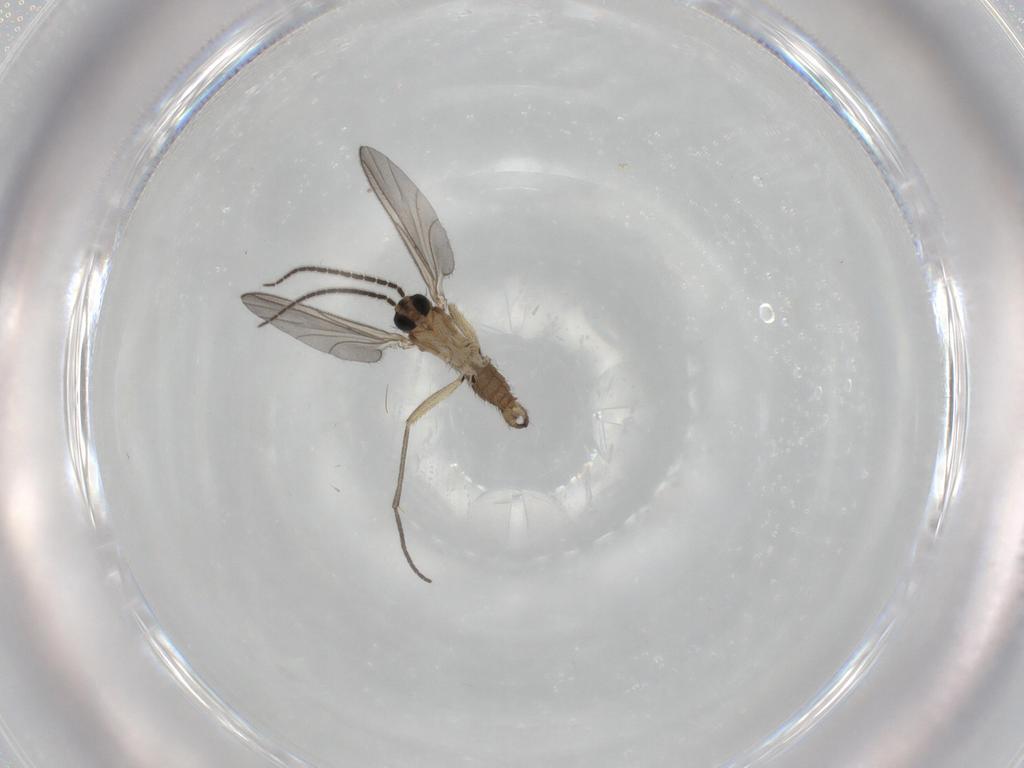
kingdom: Animalia
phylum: Arthropoda
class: Insecta
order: Diptera
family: Sciaridae
